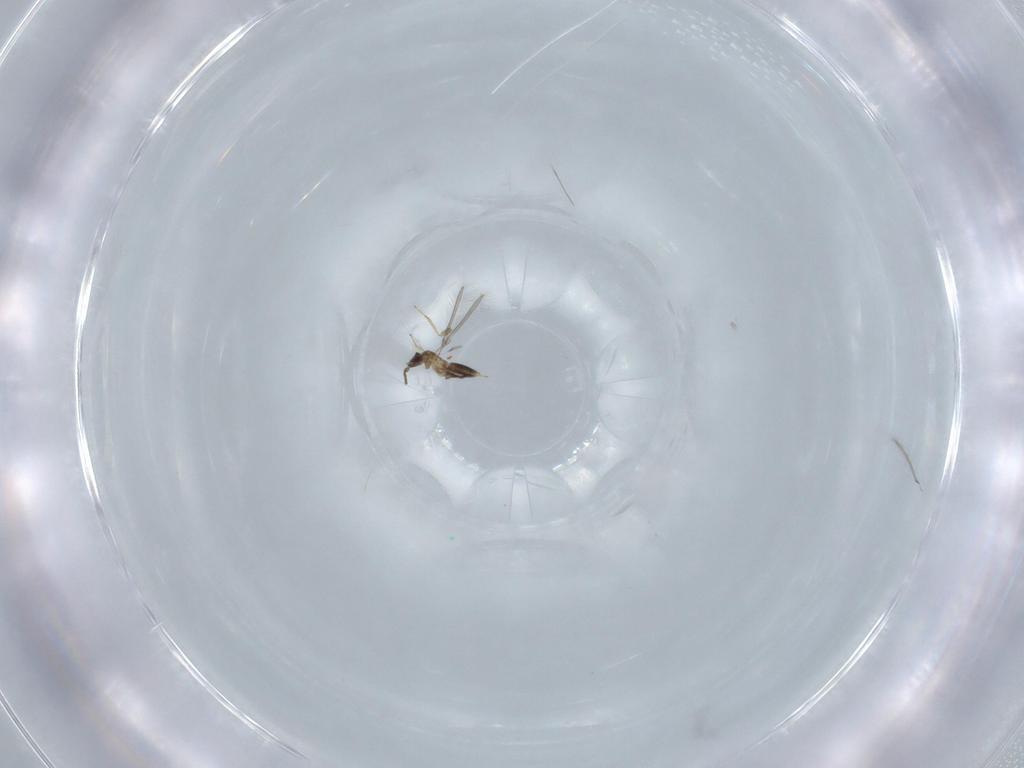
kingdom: Animalia
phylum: Arthropoda
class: Insecta
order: Hymenoptera
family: Mymaridae
